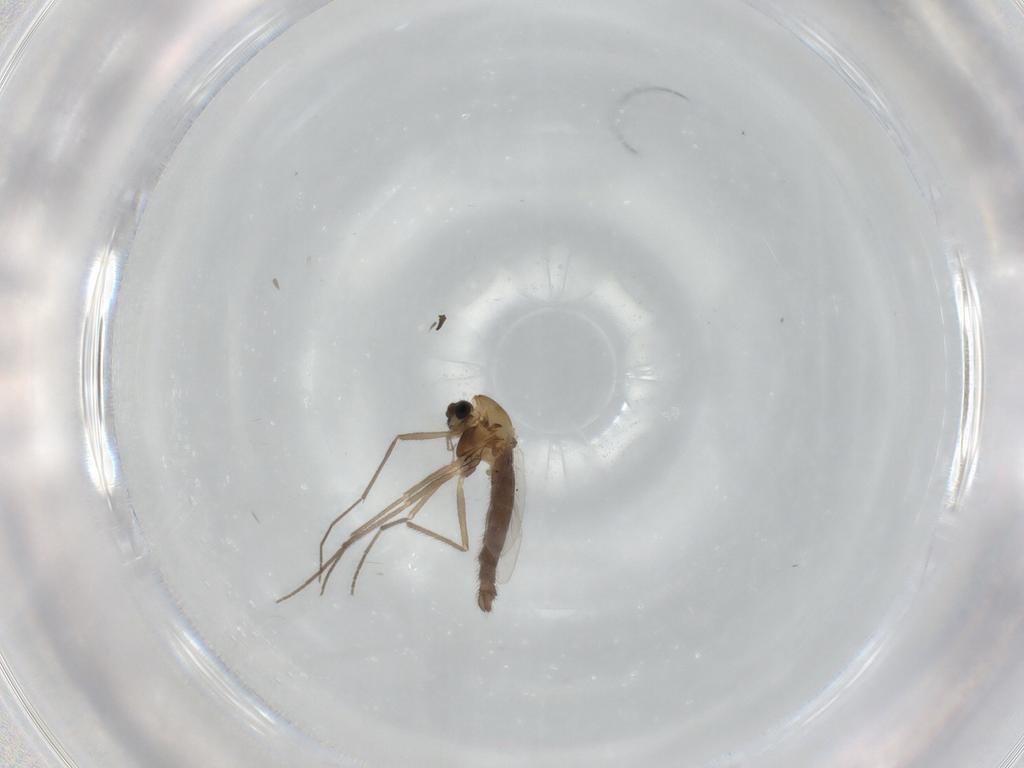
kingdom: Animalia
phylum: Arthropoda
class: Insecta
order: Diptera
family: Chironomidae
